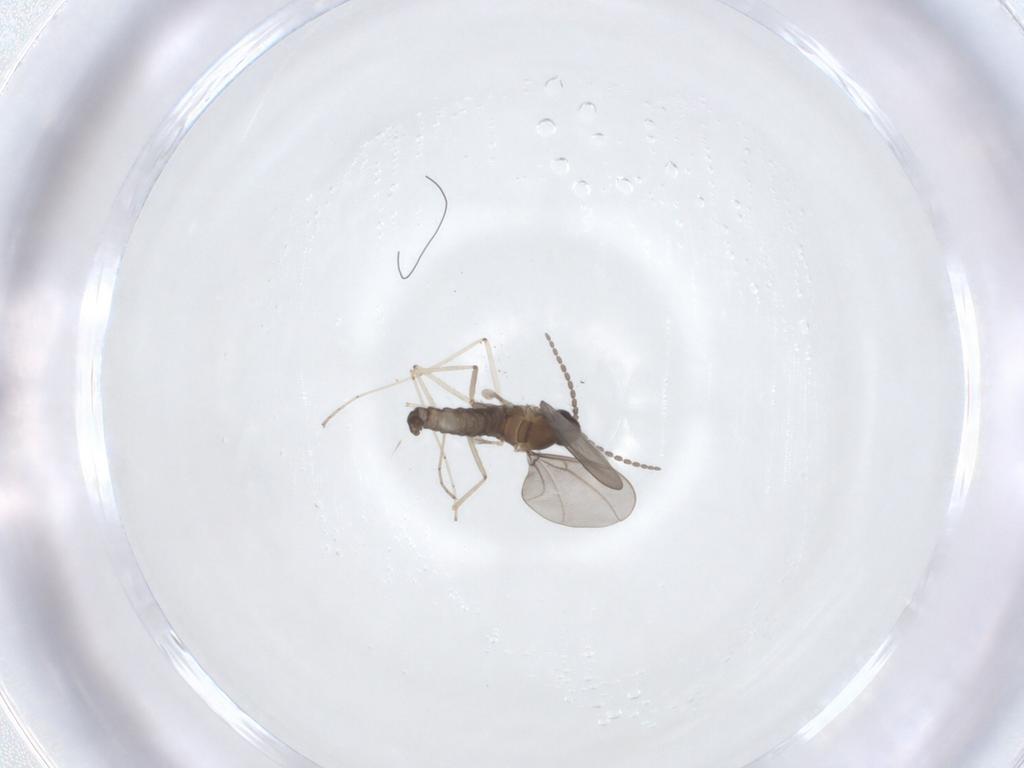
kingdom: Animalia
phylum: Arthropoda
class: Insecta
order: Diptera
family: Cecidomyiidae
